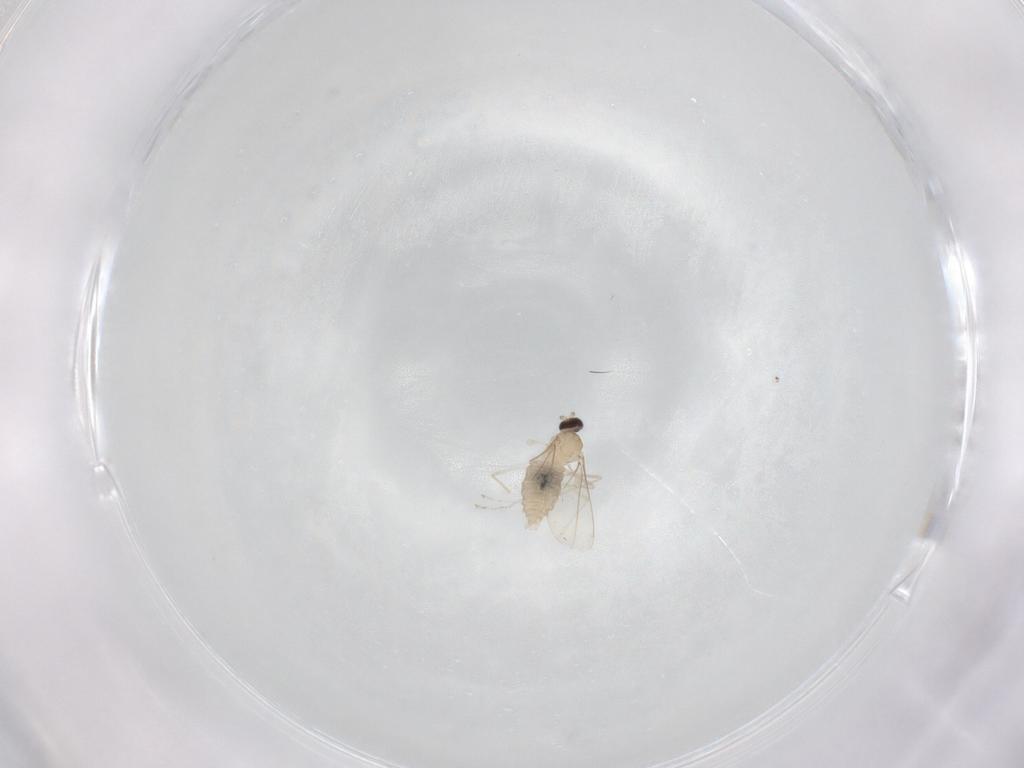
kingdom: Animalia
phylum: Arthropoda
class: Insecta
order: Diptera
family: Cecidomyiidae
